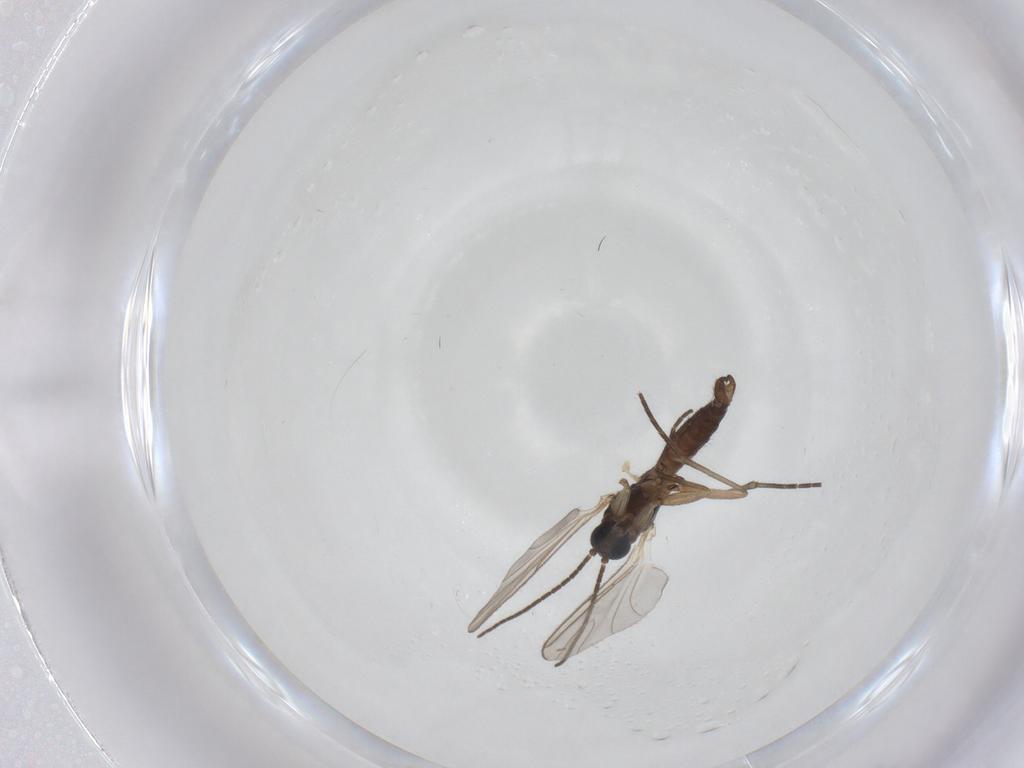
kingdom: Animalia
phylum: Arthropoda
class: Insecta
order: Diptera
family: Sciaridae
